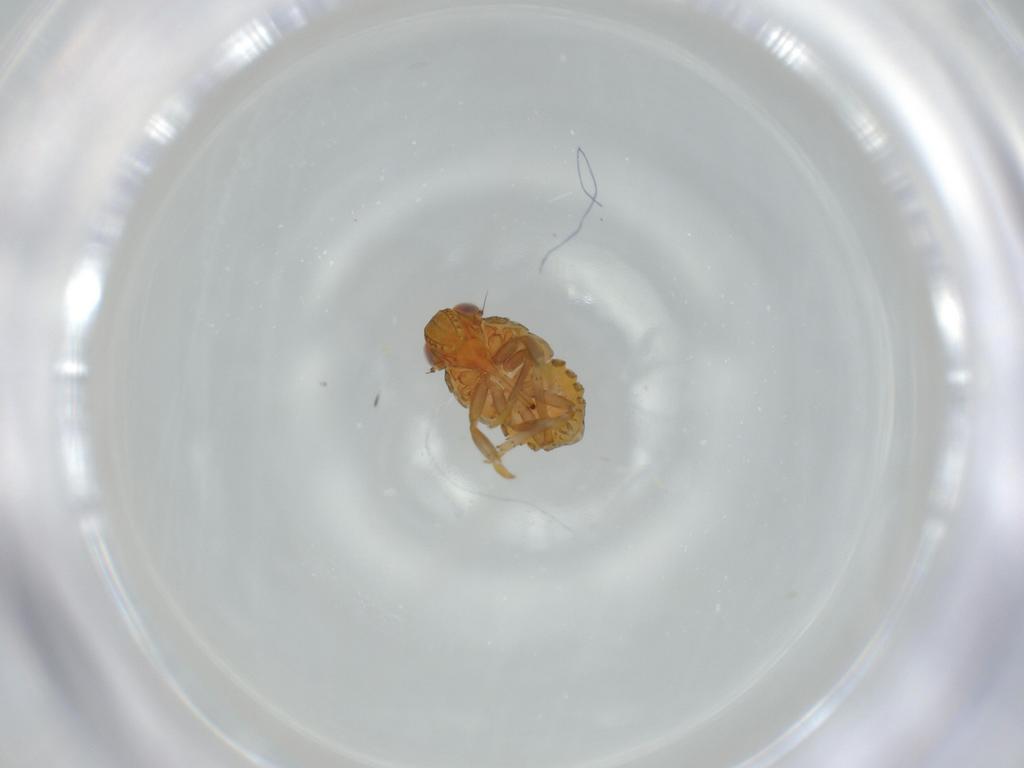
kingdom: Animalia
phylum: Arthropoda
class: Insecta
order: Hemiptera
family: Issidae
